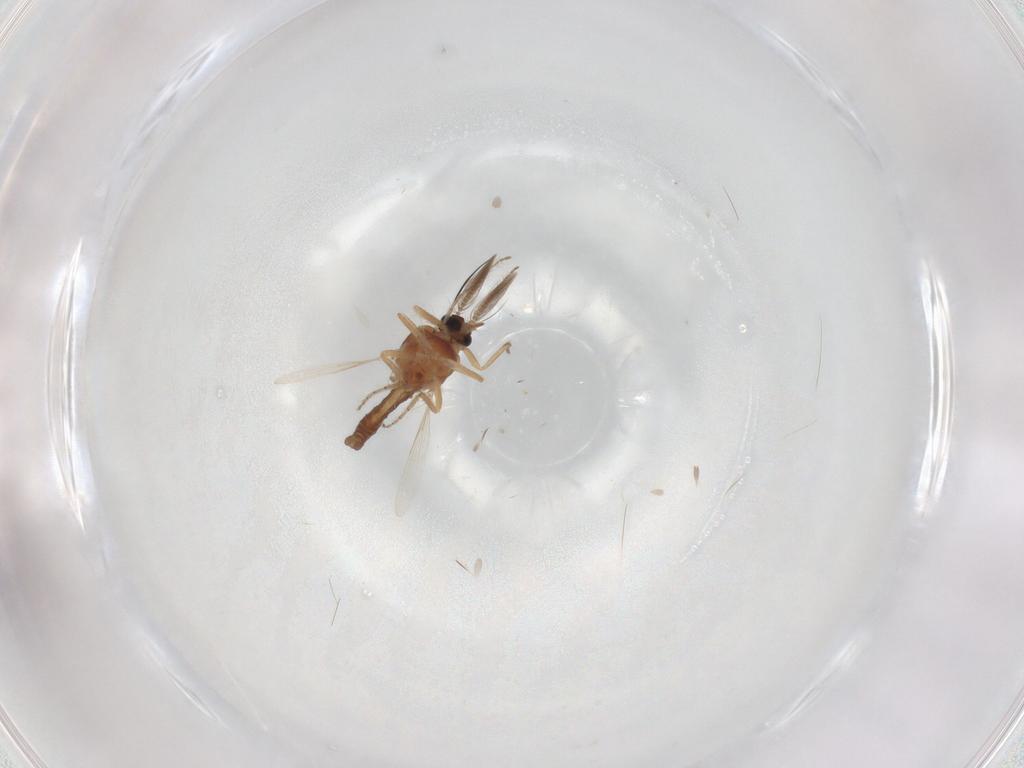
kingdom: Animalia
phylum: Arthropoda
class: Insecta
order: Diptera
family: Ceratopogonidae
